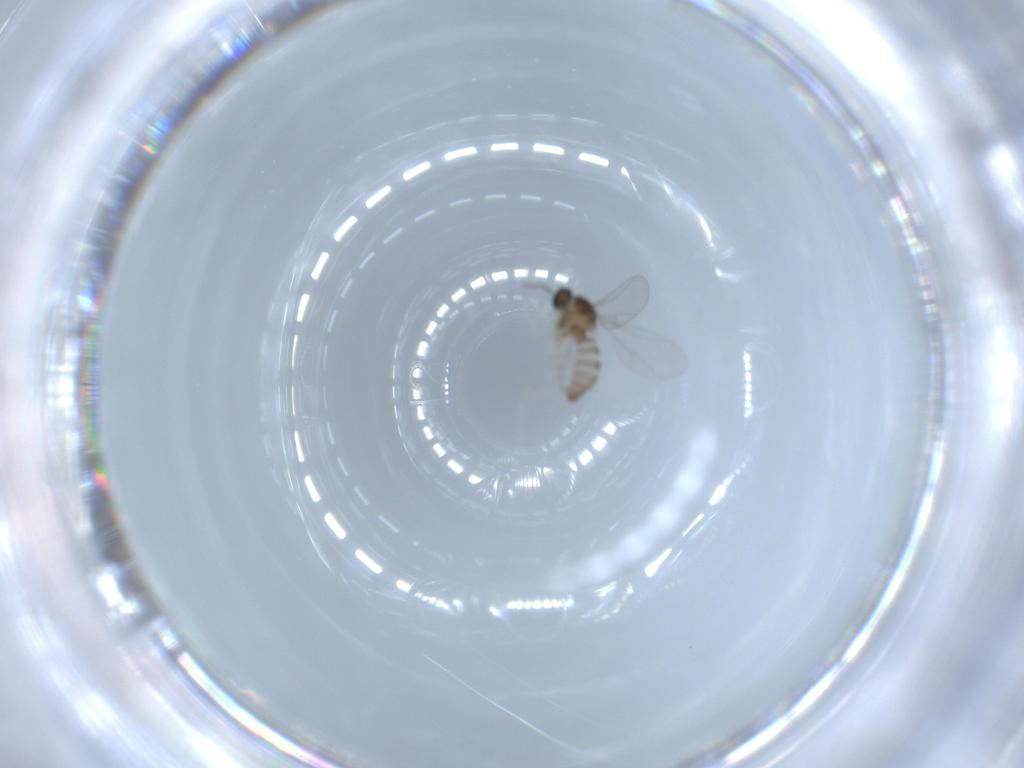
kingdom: Animalia
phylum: Arthropoda
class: Insecta
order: Diptera
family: Cecidomyiidae
